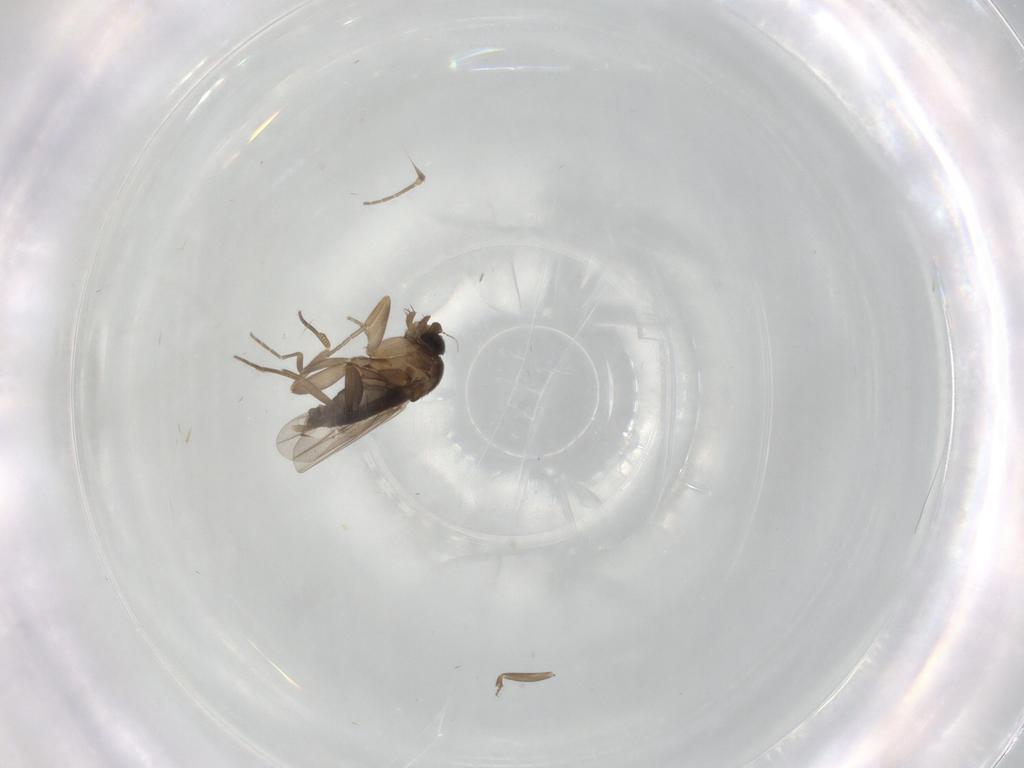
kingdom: Animalia
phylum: Arthropoda
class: Insecta
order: Diptera
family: Phoridae
